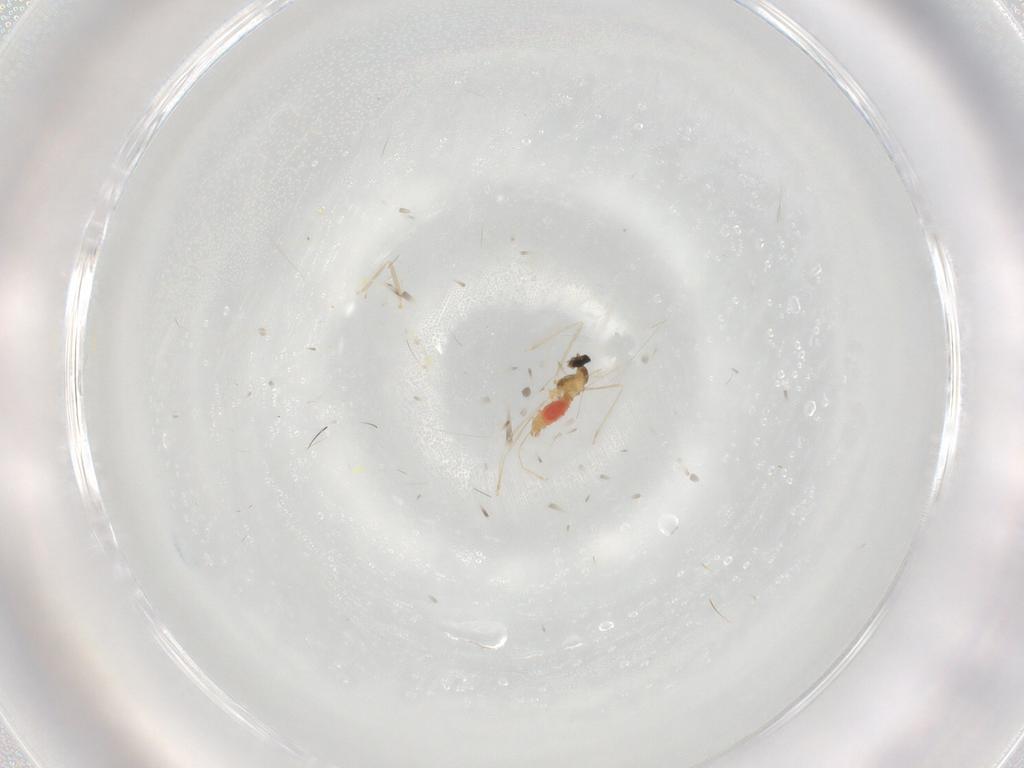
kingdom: Animalia
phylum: Arthropoda
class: Insecta
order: Diptera
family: Cecidomyiidae
